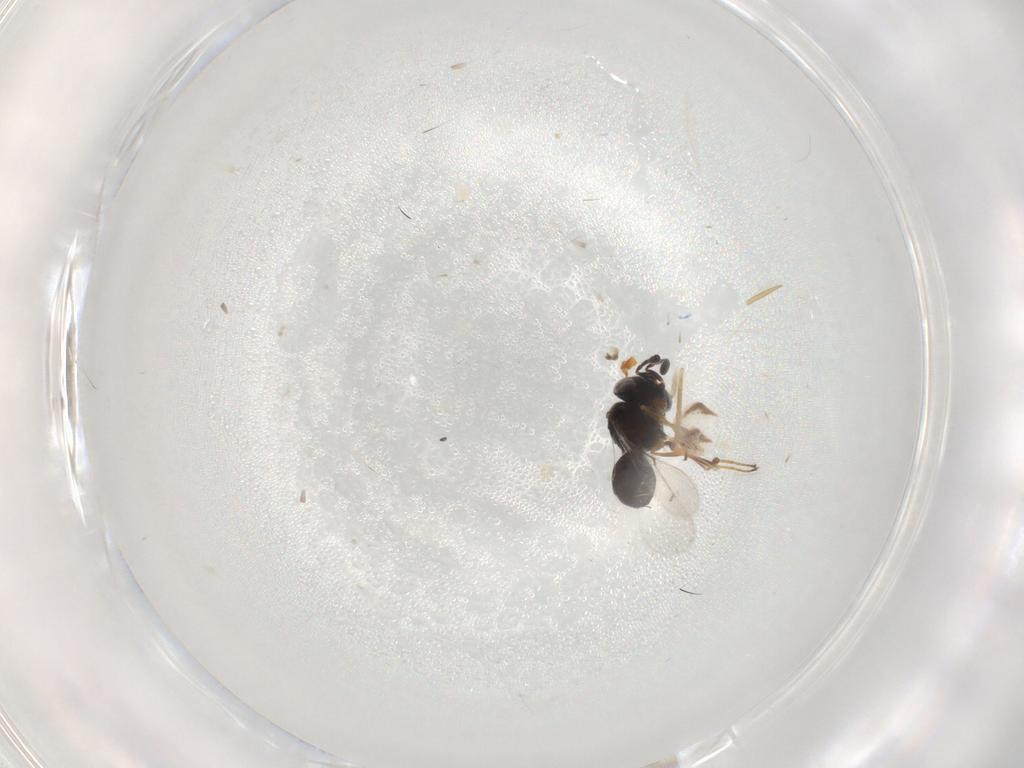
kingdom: Animalia
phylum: Arthropoda
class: Insecta
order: Hymenoptera
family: Scelionidae
